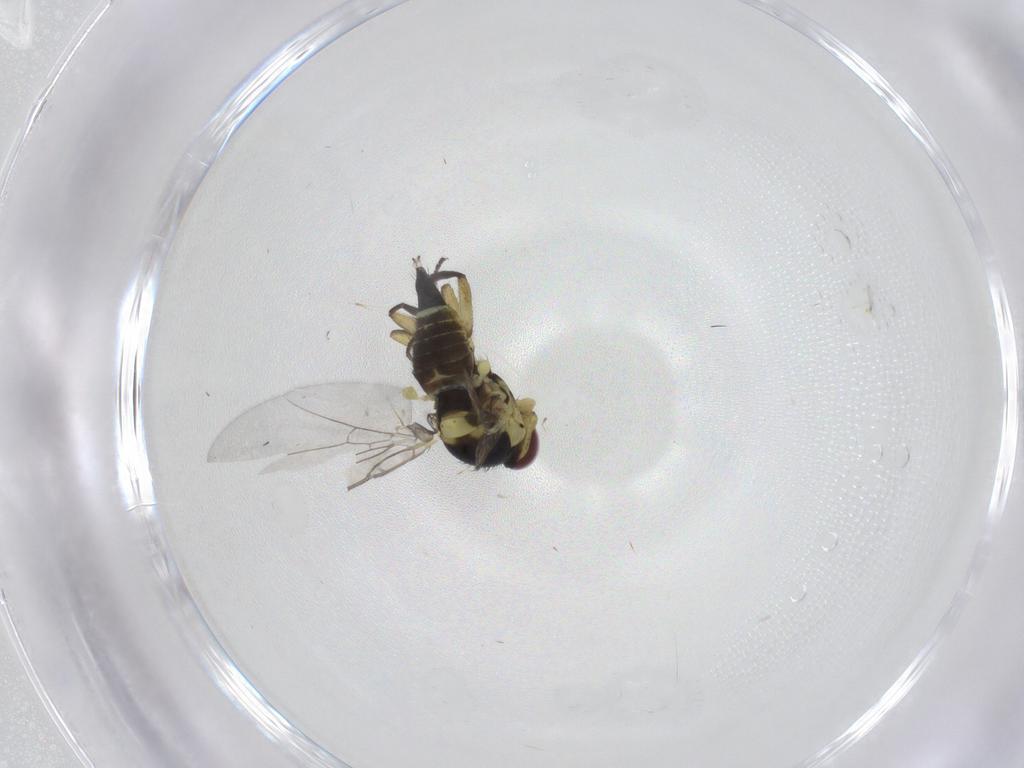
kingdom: Animalia
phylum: Arthropoda
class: Insecta
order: Diptera
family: Agromyzidae
